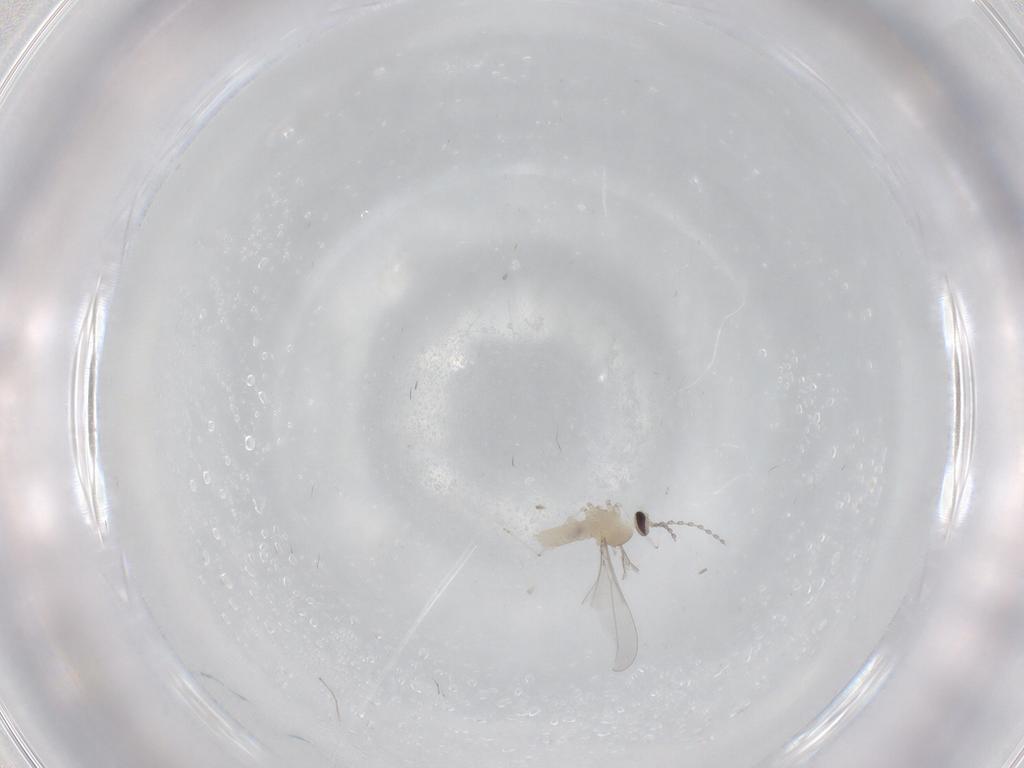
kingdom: Animalia
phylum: Arthropoda
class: Insecta
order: Diptera
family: Cecidomyiidae
